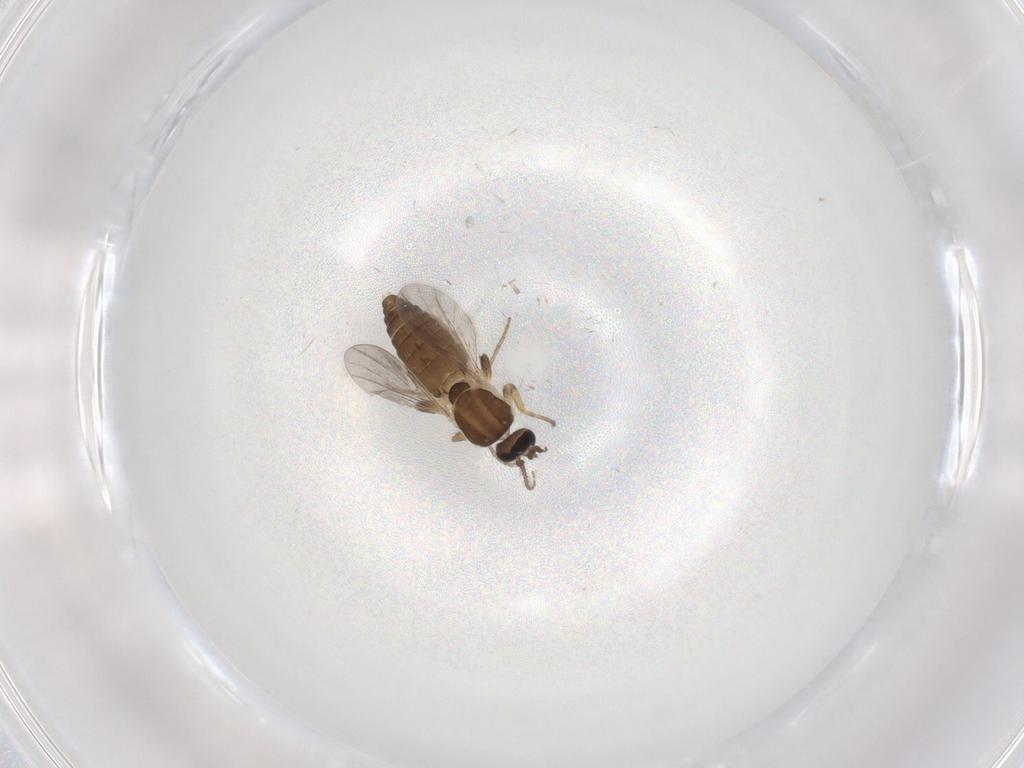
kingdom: Animalia
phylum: Arthropoda
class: Insecta
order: Diptera
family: Ceratopogonidae
